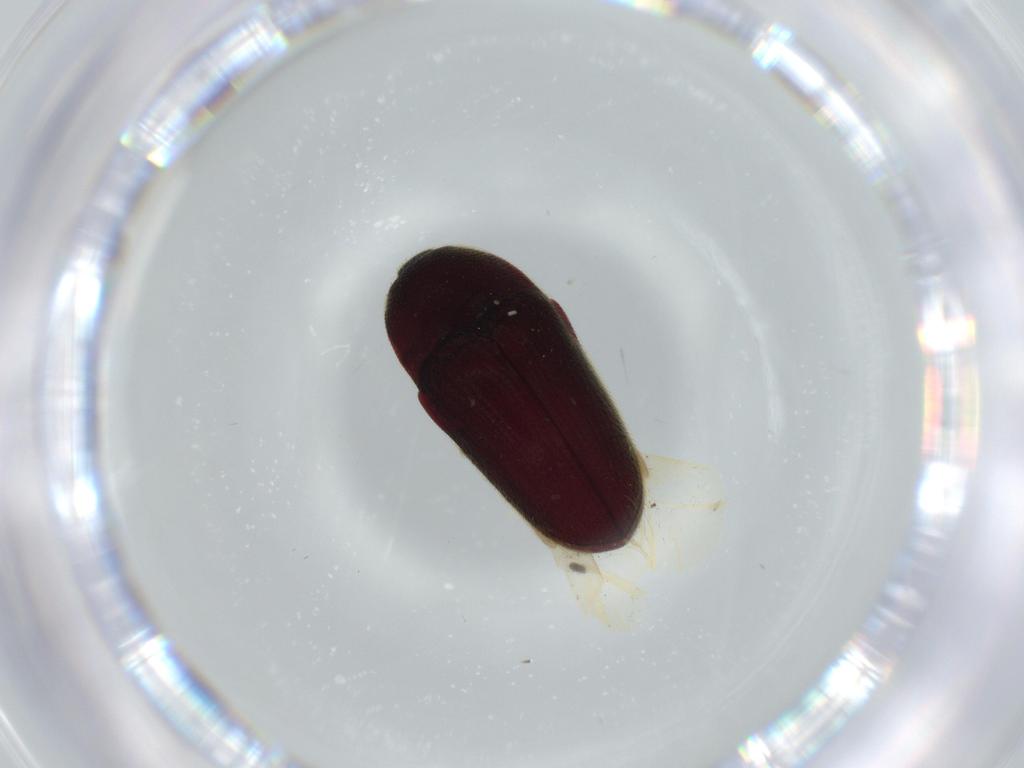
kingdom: Animalia
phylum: Arthropoda
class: Insecta
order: Coleoptera
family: Throscidae
